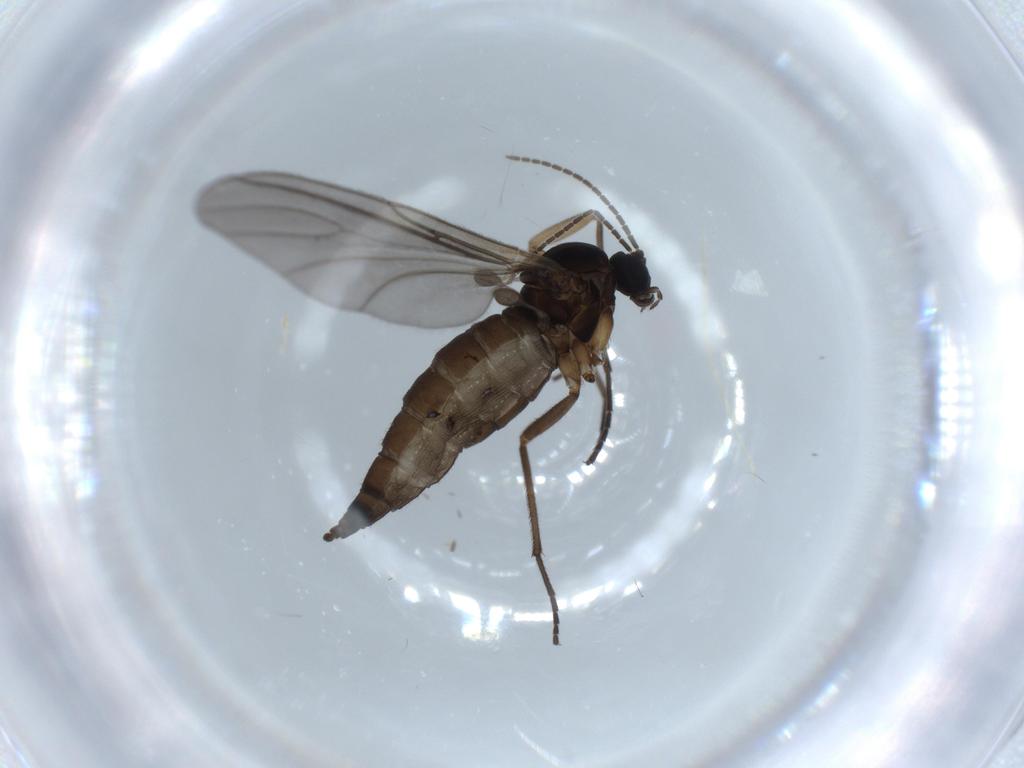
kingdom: Animalia
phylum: Arthropoda
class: Insecta
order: Diptera
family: Sciaridae
